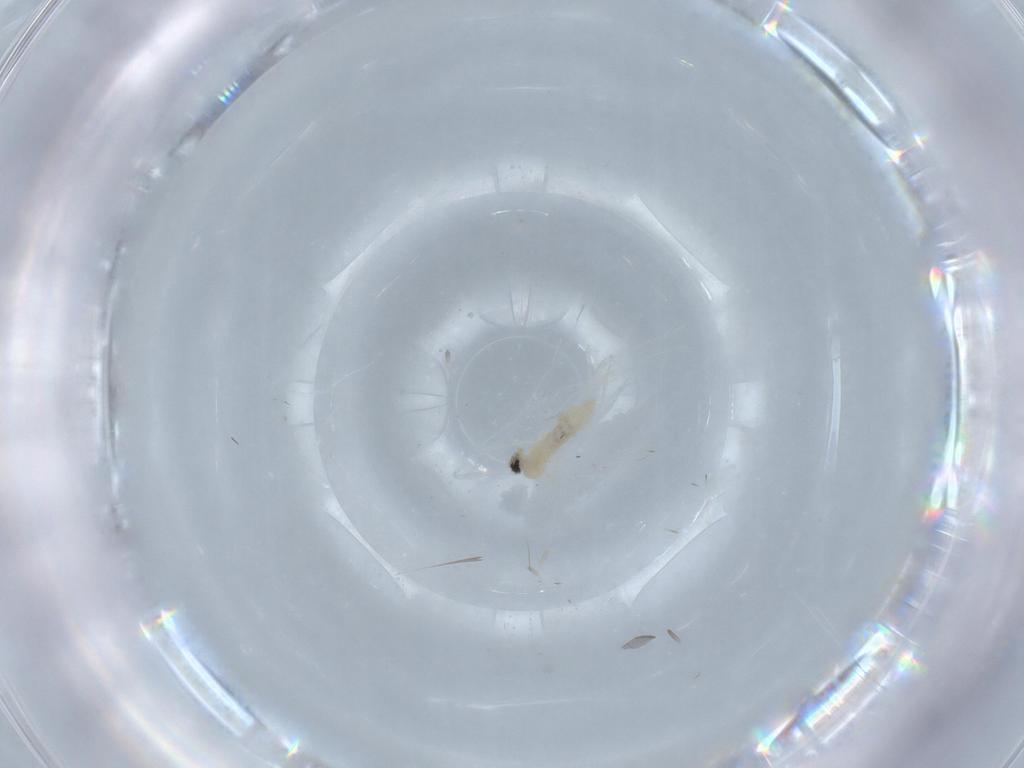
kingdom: Animalia
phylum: Arthropoda
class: Insecta
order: Diptera
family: Ceratopogonidae
